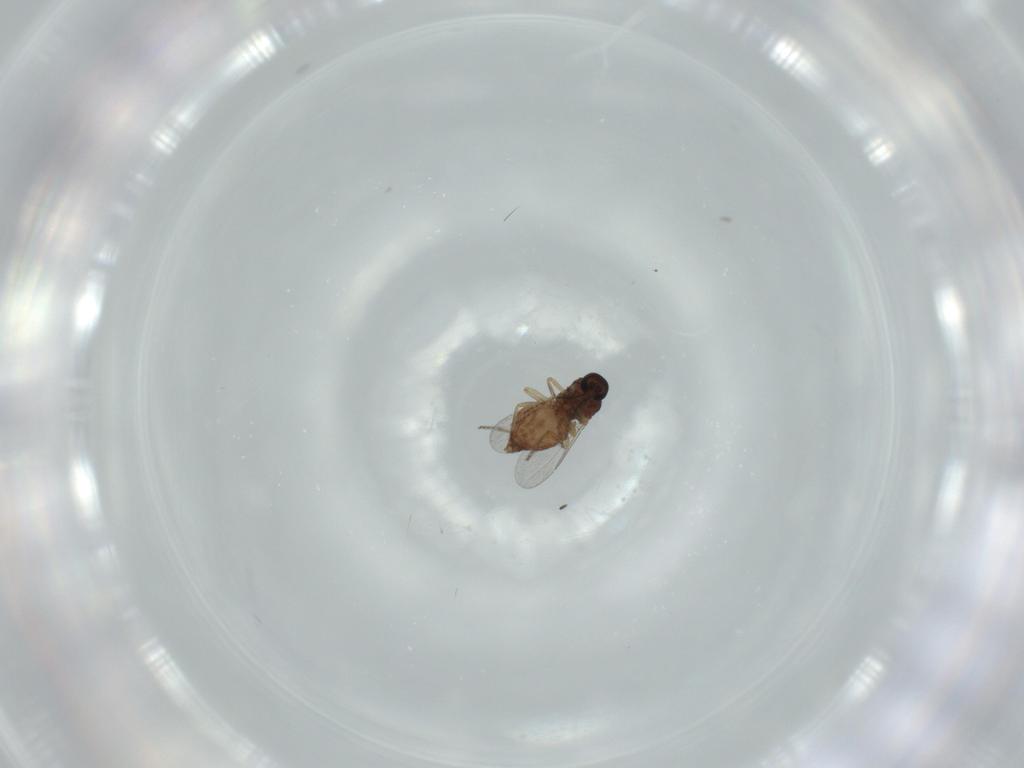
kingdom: Animalia
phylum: Arthropoda
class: Insecta
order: Diptera
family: Ceratopogonidae
